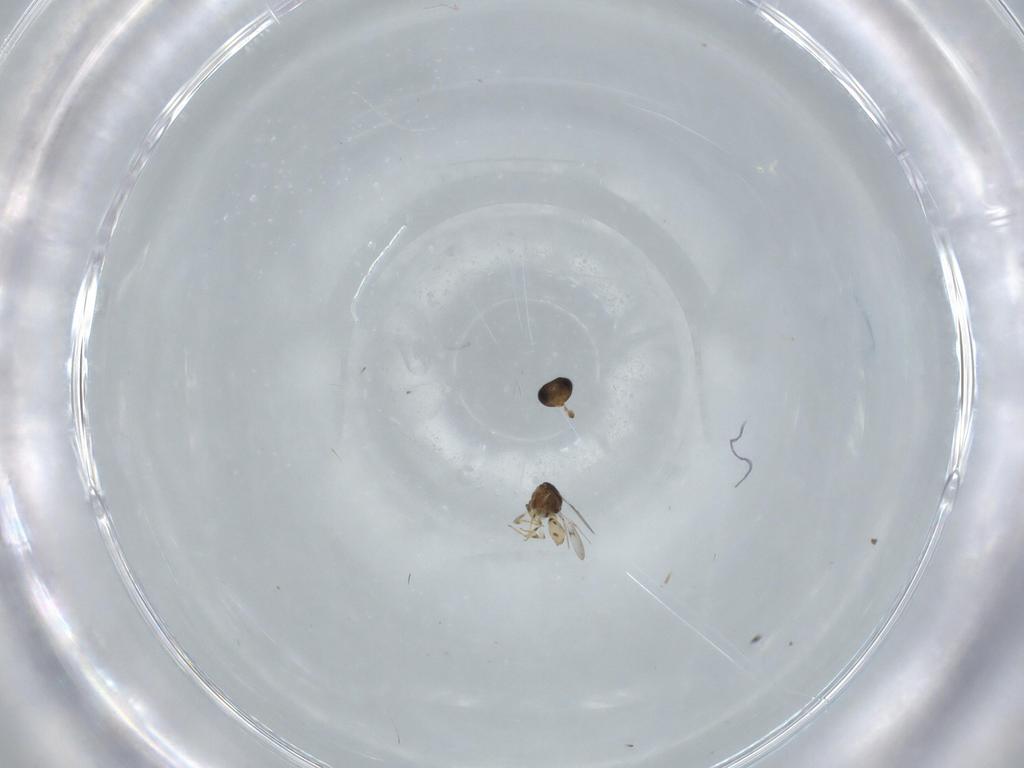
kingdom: Animalia
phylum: Arthropoda
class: Insecta
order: Hymenoptera
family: Scelionidae
